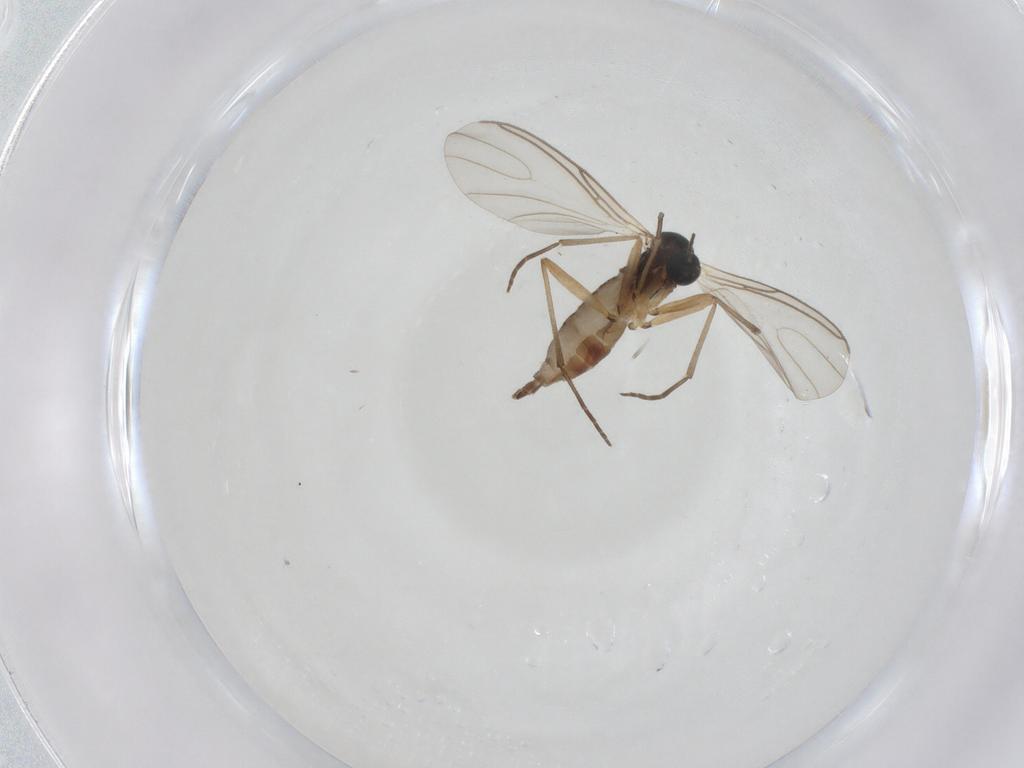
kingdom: Animalia
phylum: Arthropoda
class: Insecta
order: Diptera
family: Sciaridae
